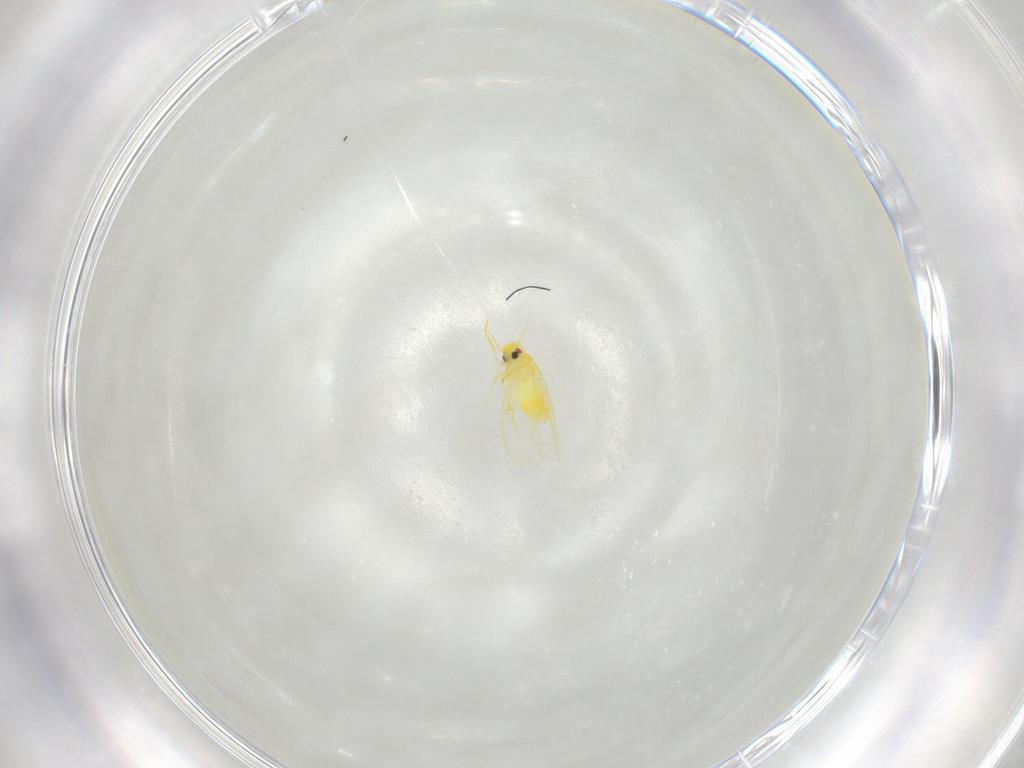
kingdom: Animalia
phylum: Arthropoda
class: Insecta
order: Hemiptera
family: Aleyrodidae
